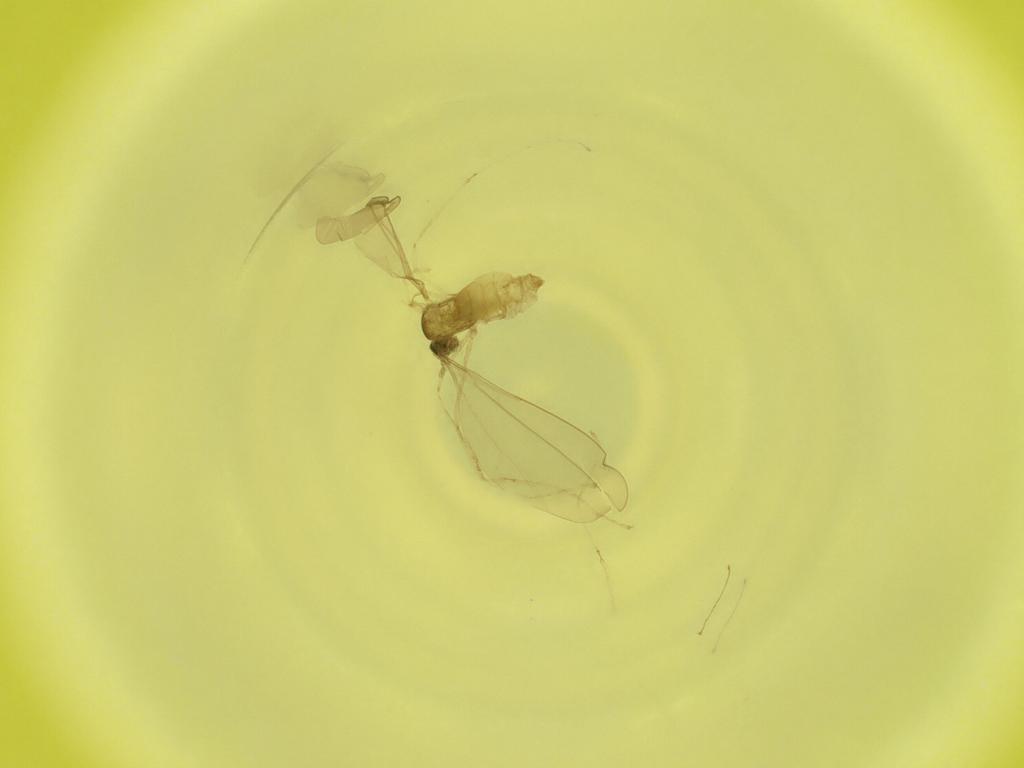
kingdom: Animalia
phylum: Arthropoda
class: Insecta
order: Diptera
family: Cecidomyiidae
